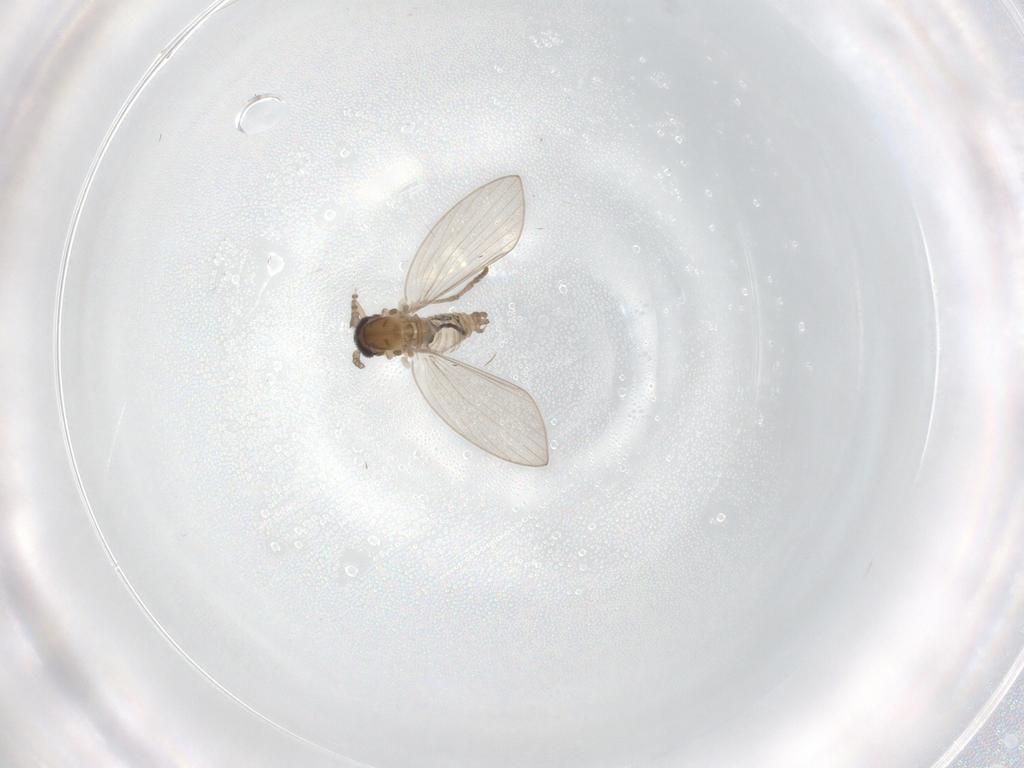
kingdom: Animalia
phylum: Arthropoda
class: Insecta
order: Diptera
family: Cecidomyiidae
